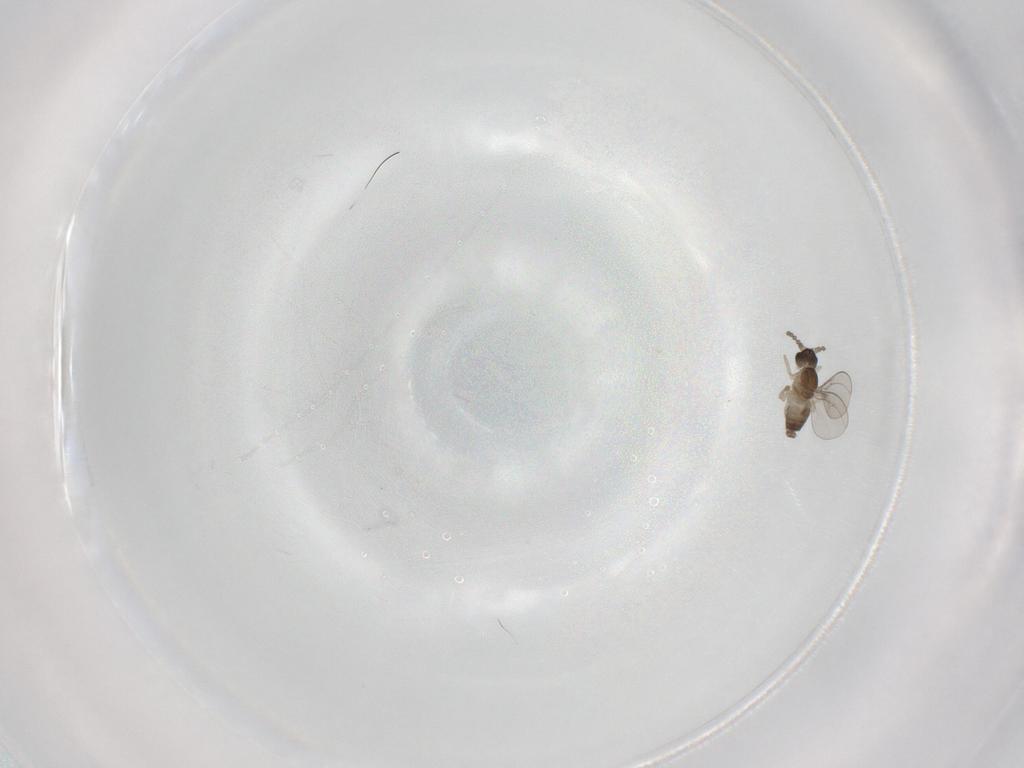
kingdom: Animalia
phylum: Arthropoda
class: Insecta
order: Diptera
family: Cecidomyiidae
